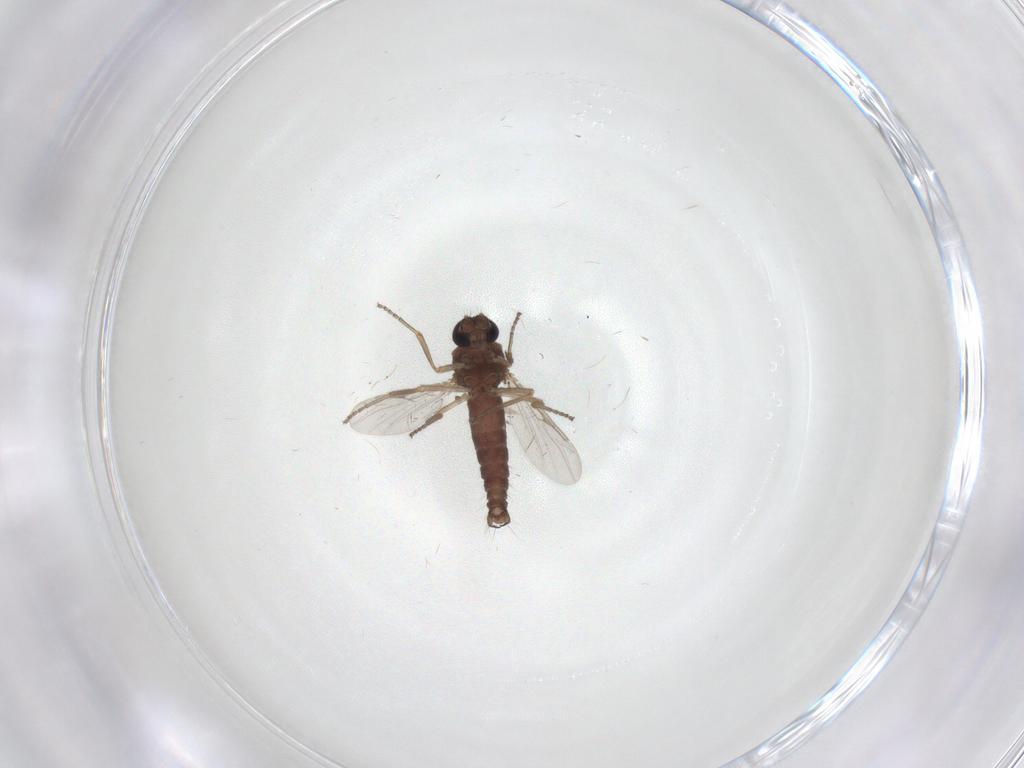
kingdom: Animalia
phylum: Arthropoda
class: Insecta
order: Diptera
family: Ceratopogonidae
